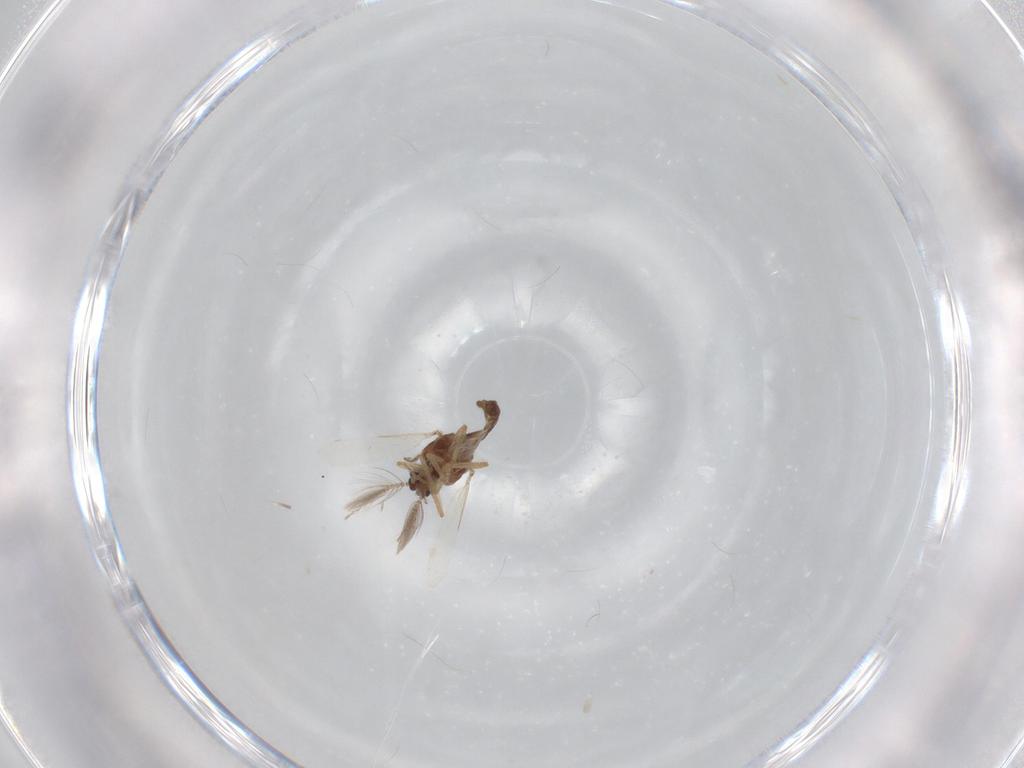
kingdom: Animalia
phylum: Arthropoda
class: Insecta
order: Diptera
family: Ceratopogonidae
